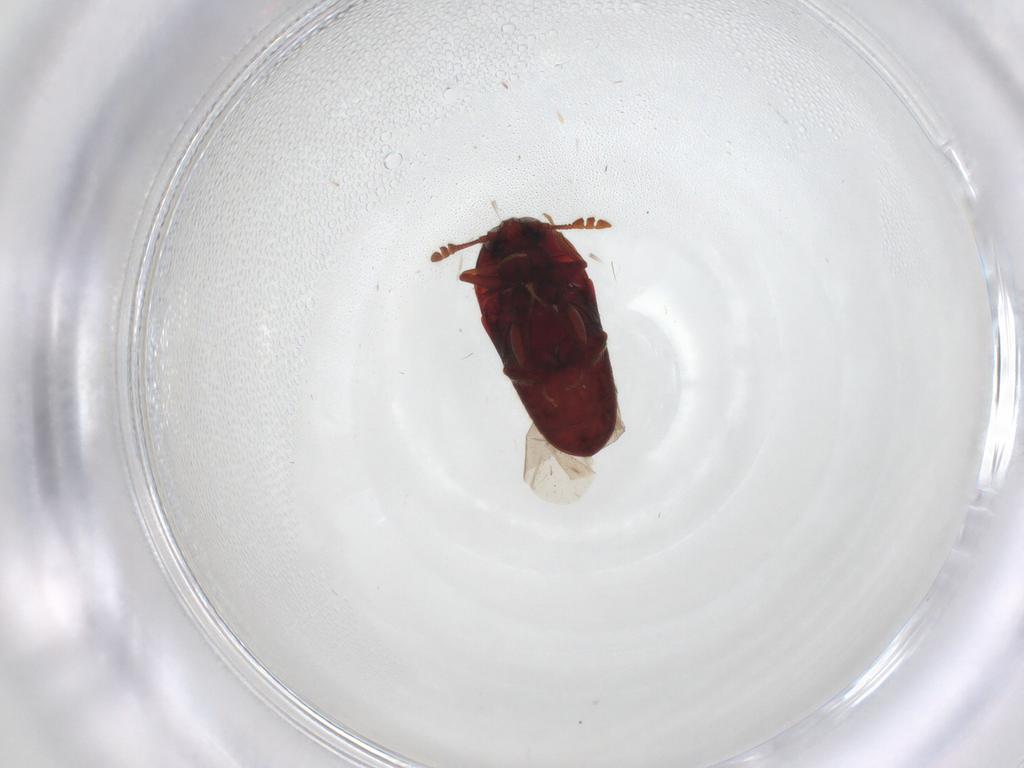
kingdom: Animalia
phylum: Arthropoda
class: Insecta
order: Coleoptera
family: Throscidae
